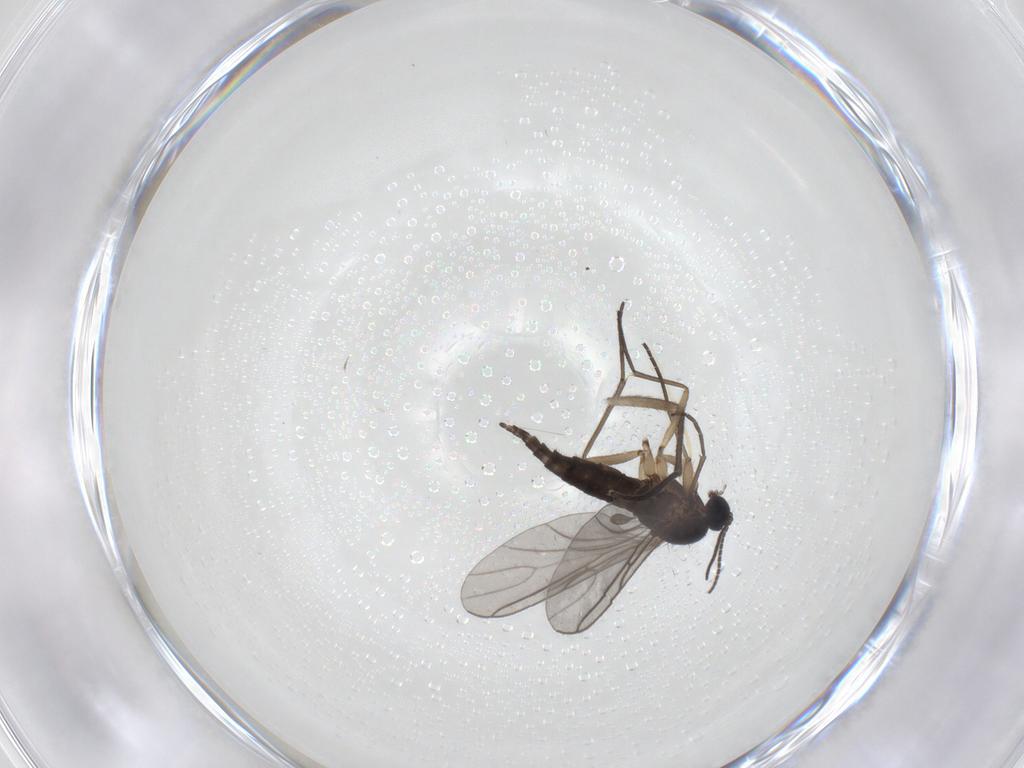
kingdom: Animalia
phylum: Arthropoda
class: Insecta
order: Diptera
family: Sciaridae
